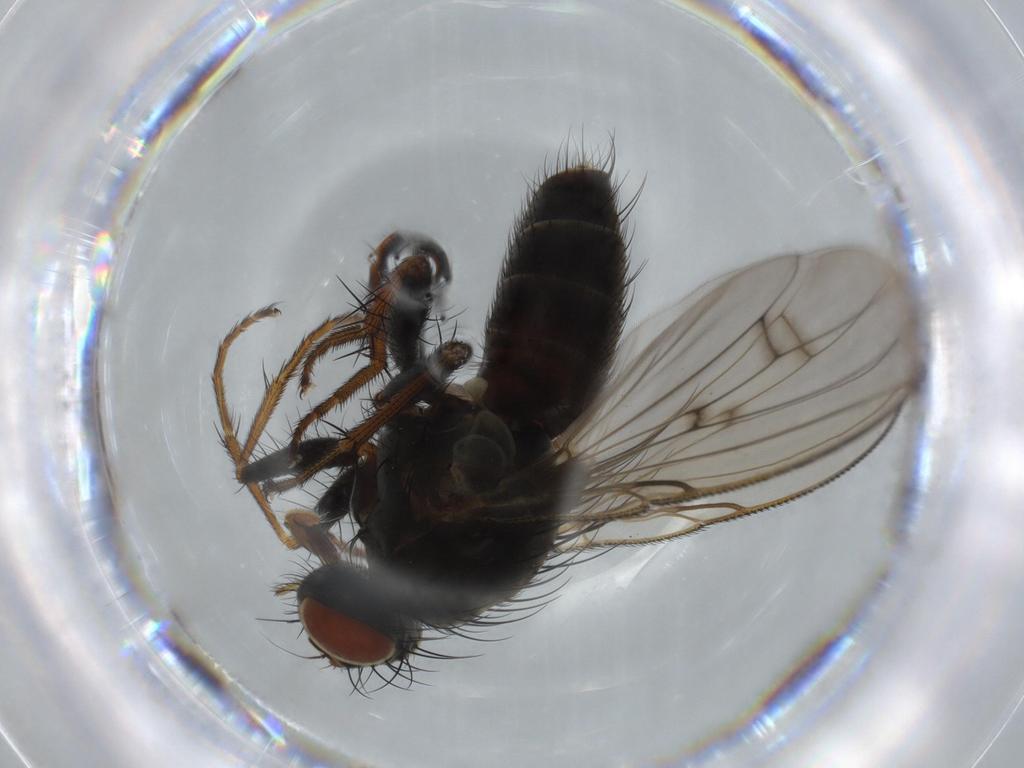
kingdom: Animalia
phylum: Arthropoda
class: Insecta
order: Diptera
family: Muscidae
